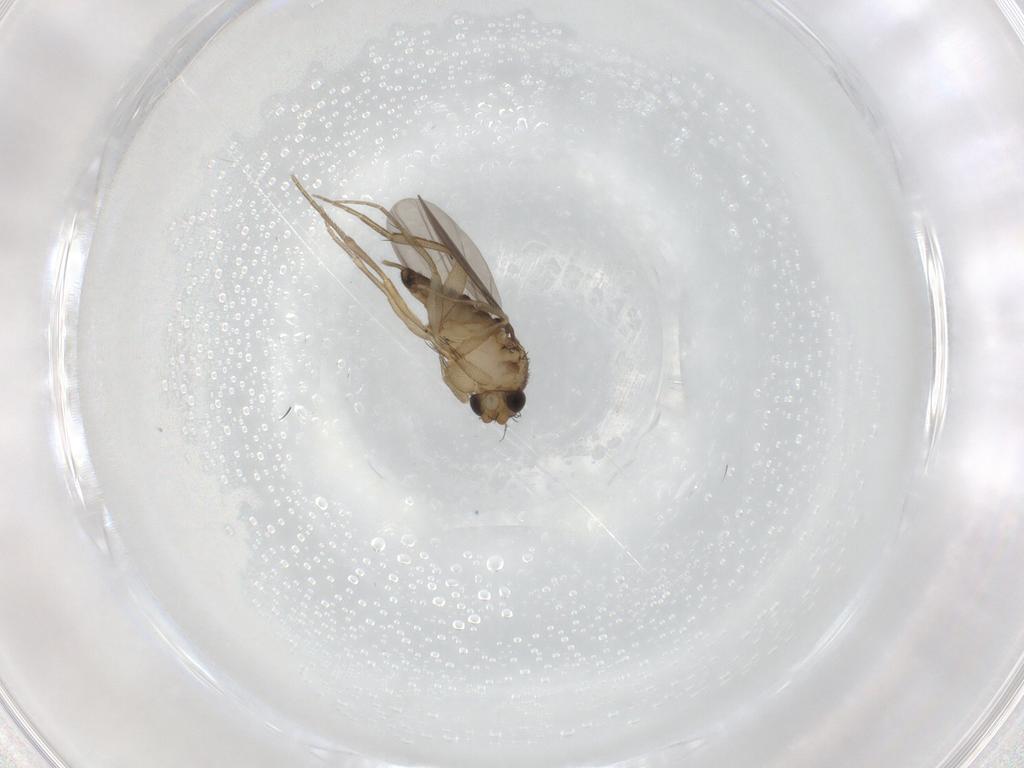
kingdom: Animalia
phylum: Arthropoda
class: Insecta
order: Diptera
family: Phoridae
